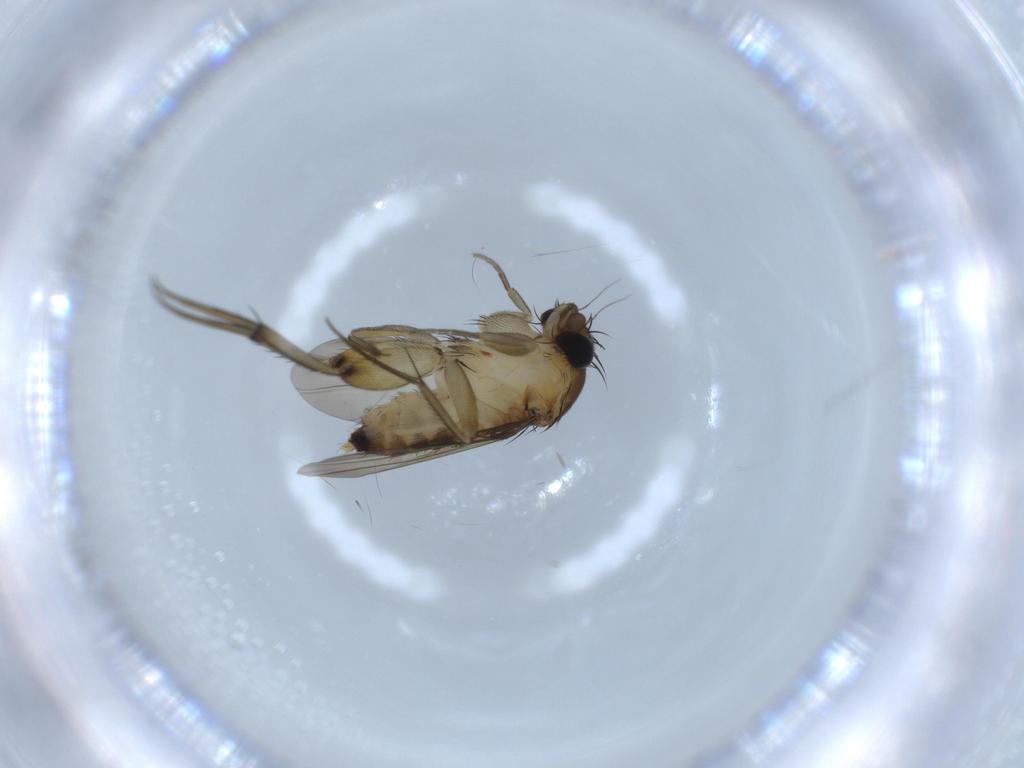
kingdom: Animalia
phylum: Arthropoda
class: Insecta
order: Diptera
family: Phoridae
